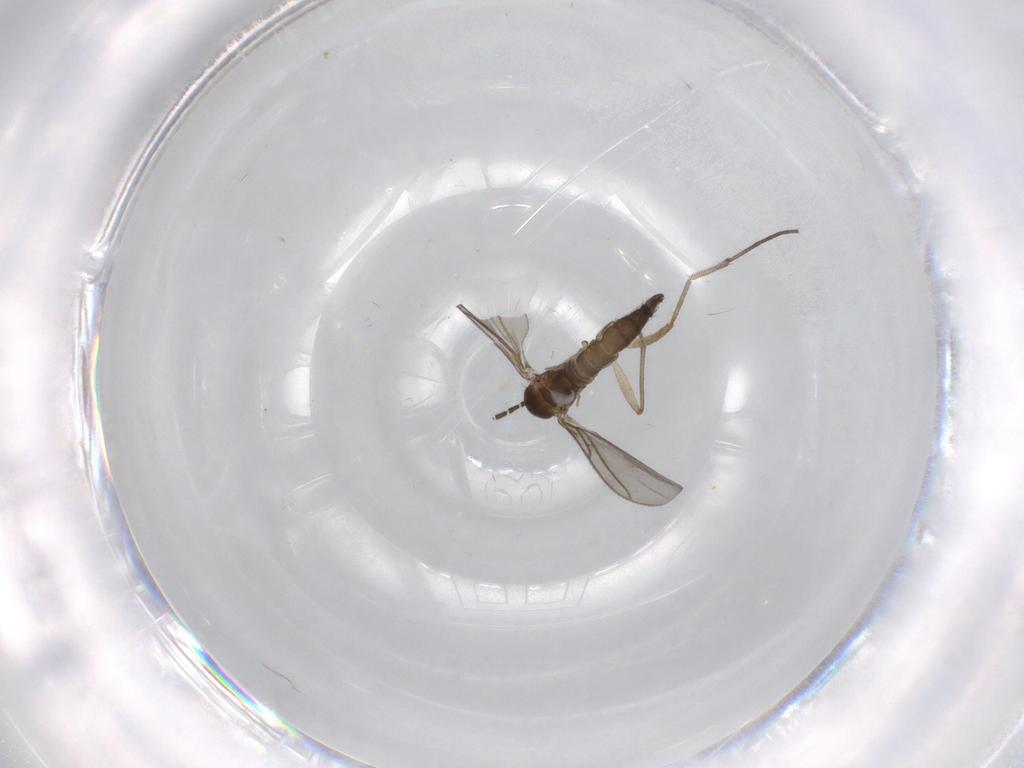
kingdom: Animalia
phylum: Arthropoda
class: Insecta
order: Diptera
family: Sciaridae
